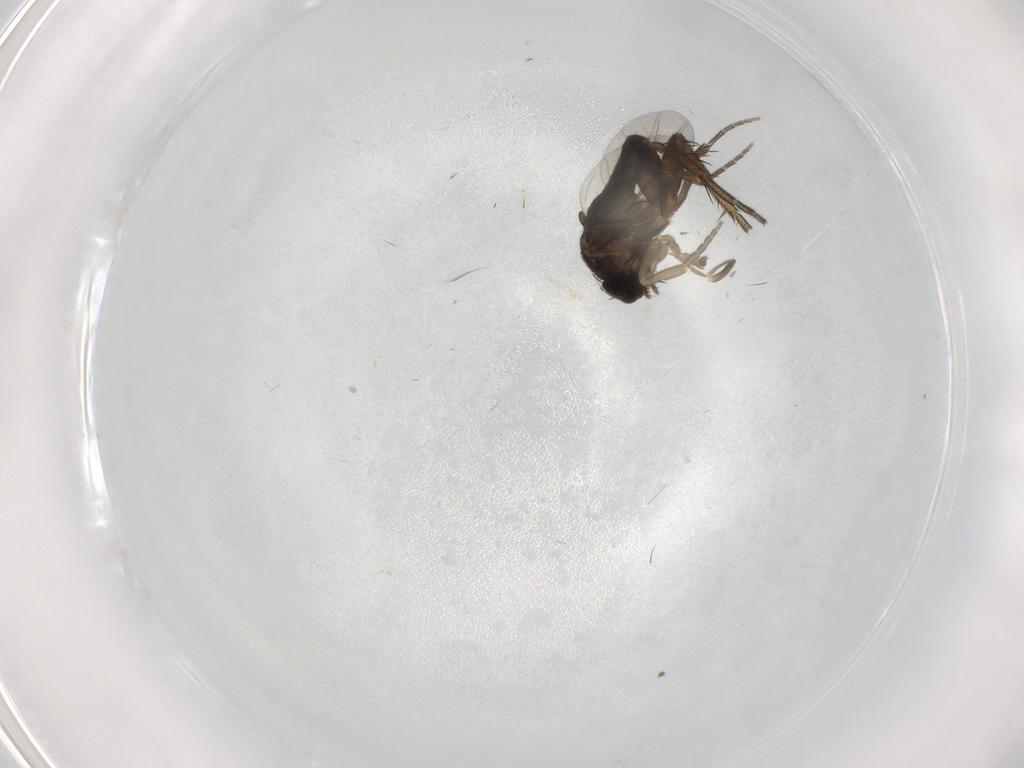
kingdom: Animalia
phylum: Arthropoda
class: Insecta
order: Diptera
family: Phoridae
